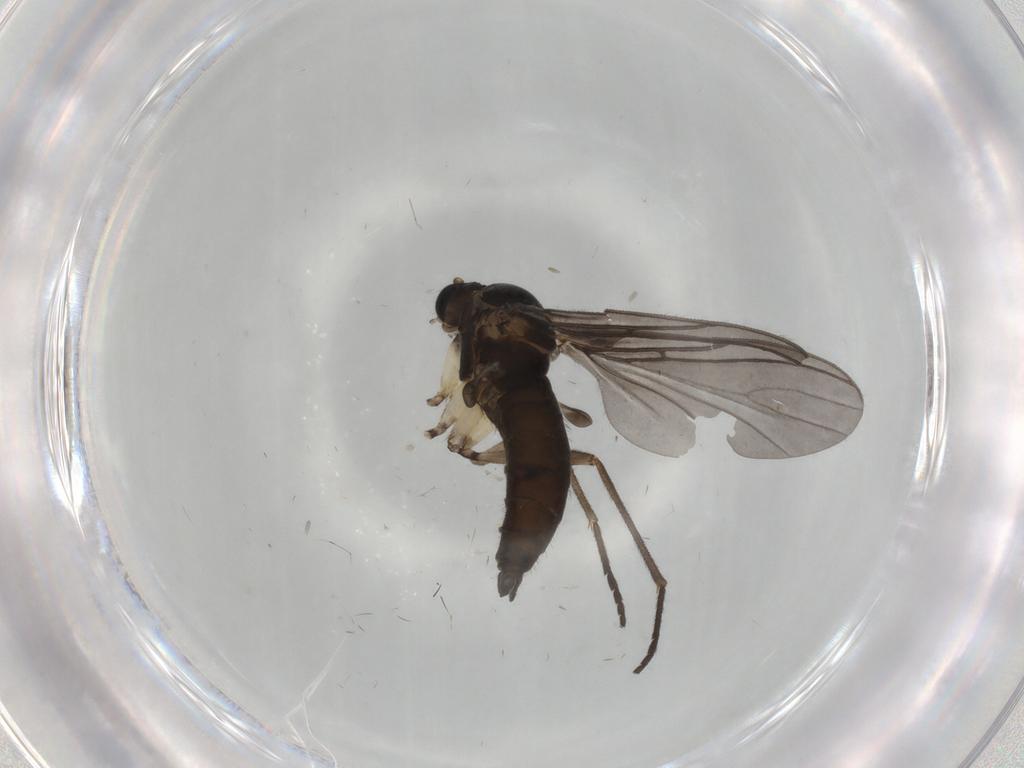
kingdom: Animalia
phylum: Arthropoda
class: Insecta
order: Diptera
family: Sciaridae
